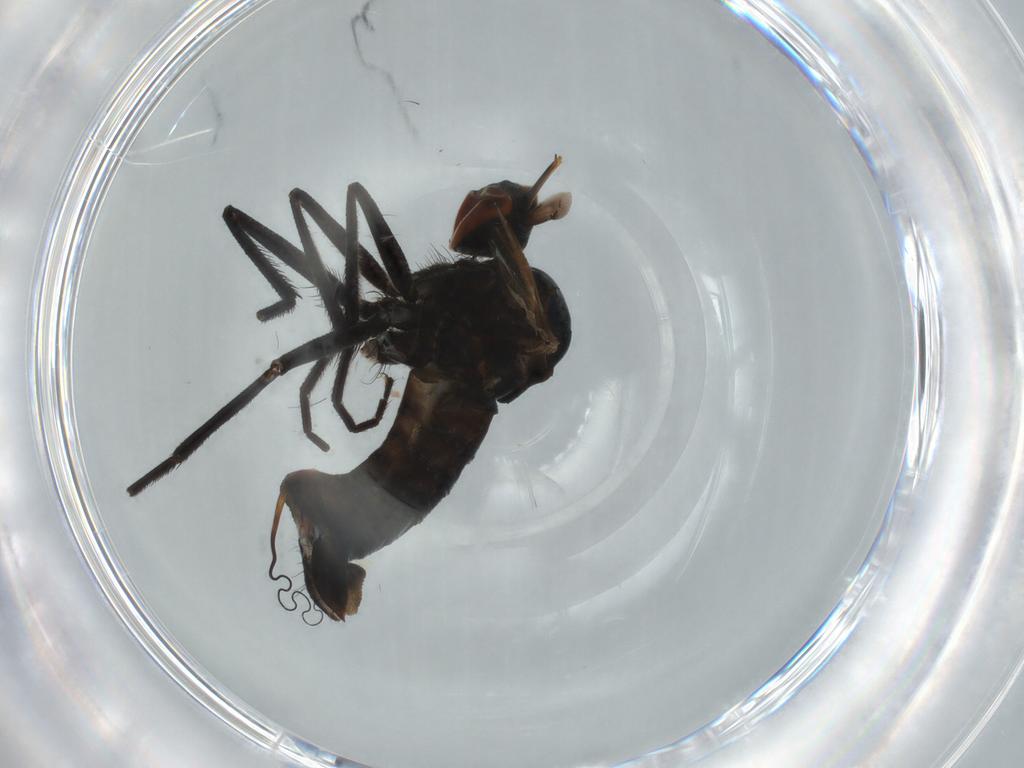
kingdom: Animalia
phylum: Arthropoda
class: Insecta
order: Diptera
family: Empididae
